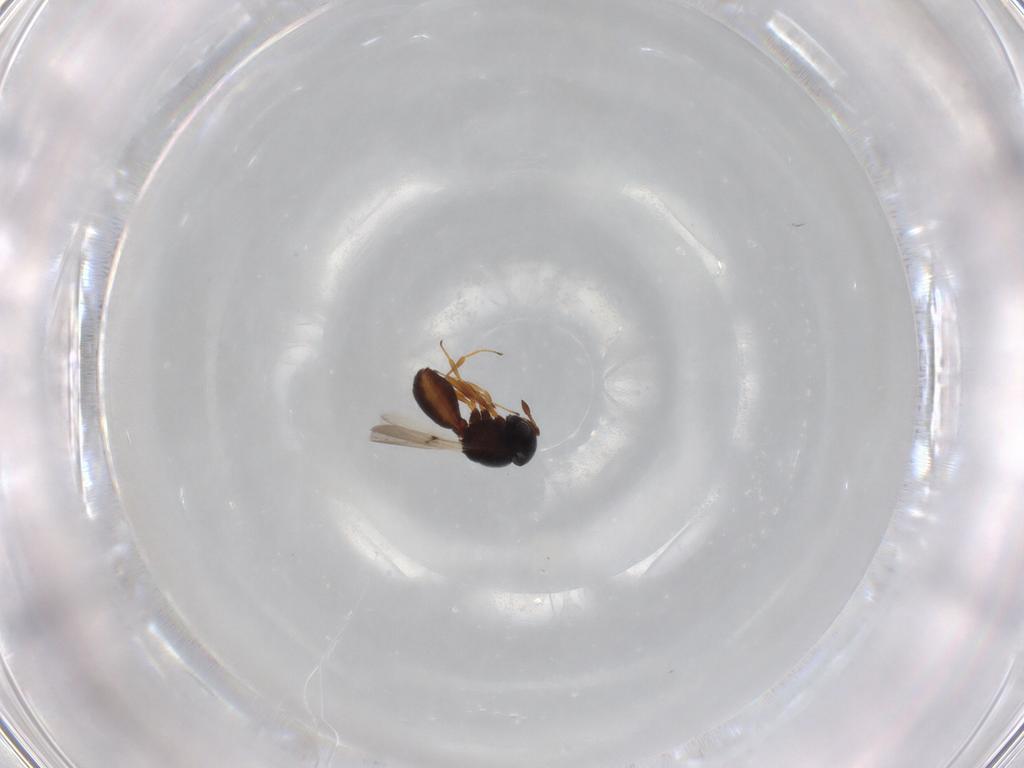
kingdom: Animalia
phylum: Arthropoda
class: Insecta
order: Hymenoptera
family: Scelionidae
